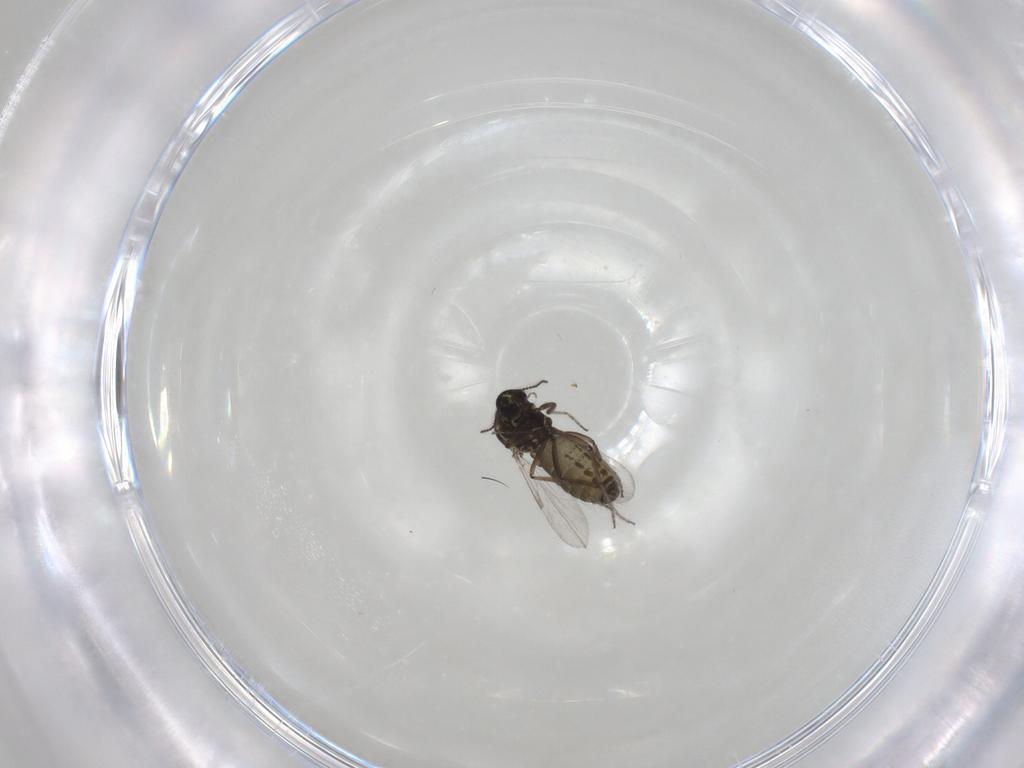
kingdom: Animalia
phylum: Arthropoda
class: Insecta
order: Diptera
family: Ceratopogonidae
